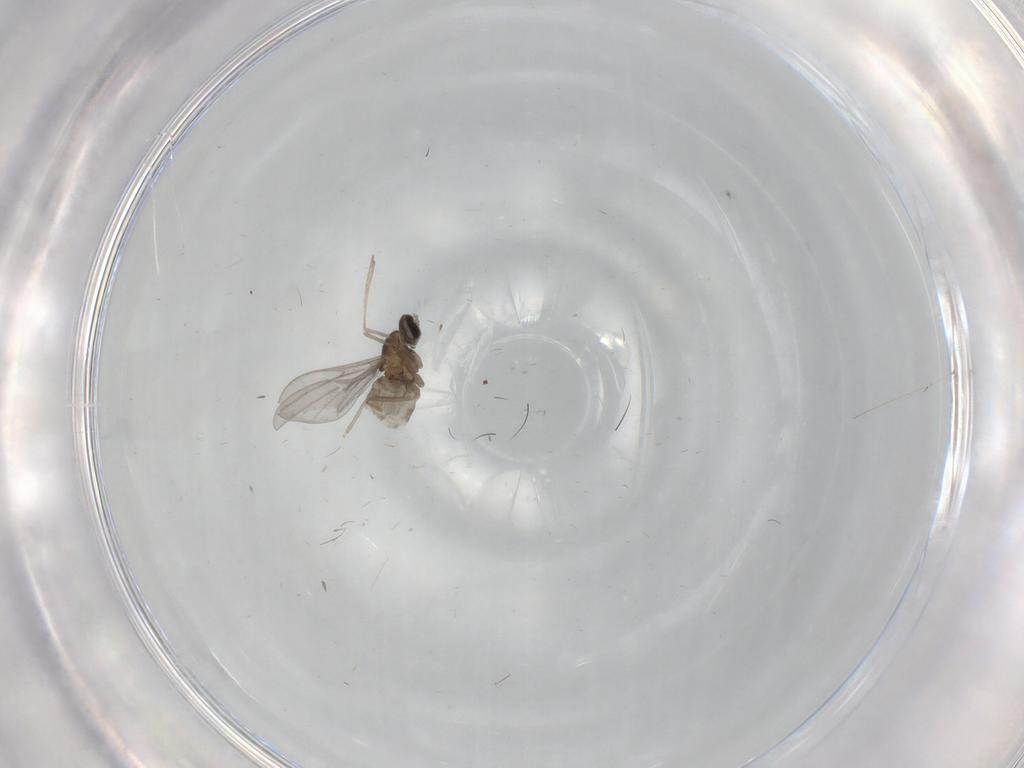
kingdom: Animalia
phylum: Arthropoda
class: Insecta
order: Diptera
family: Cecidomyiidae
